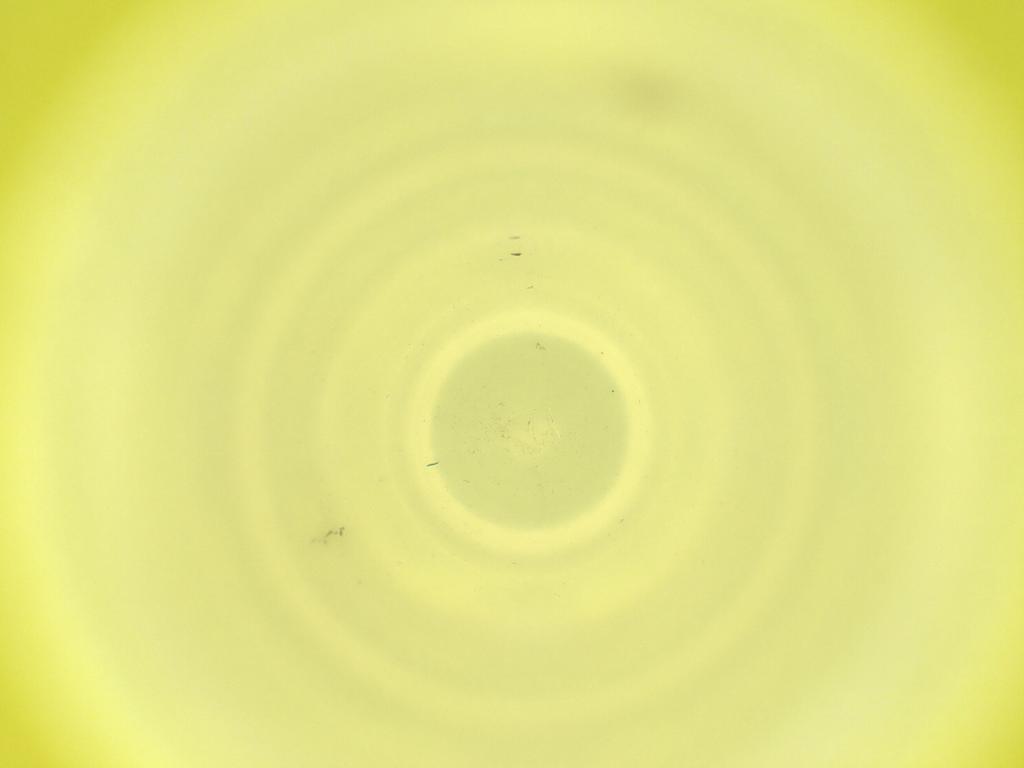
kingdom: Animalia
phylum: Arthropoda
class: Insecta
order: Diptera
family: Cecidomyiidae
